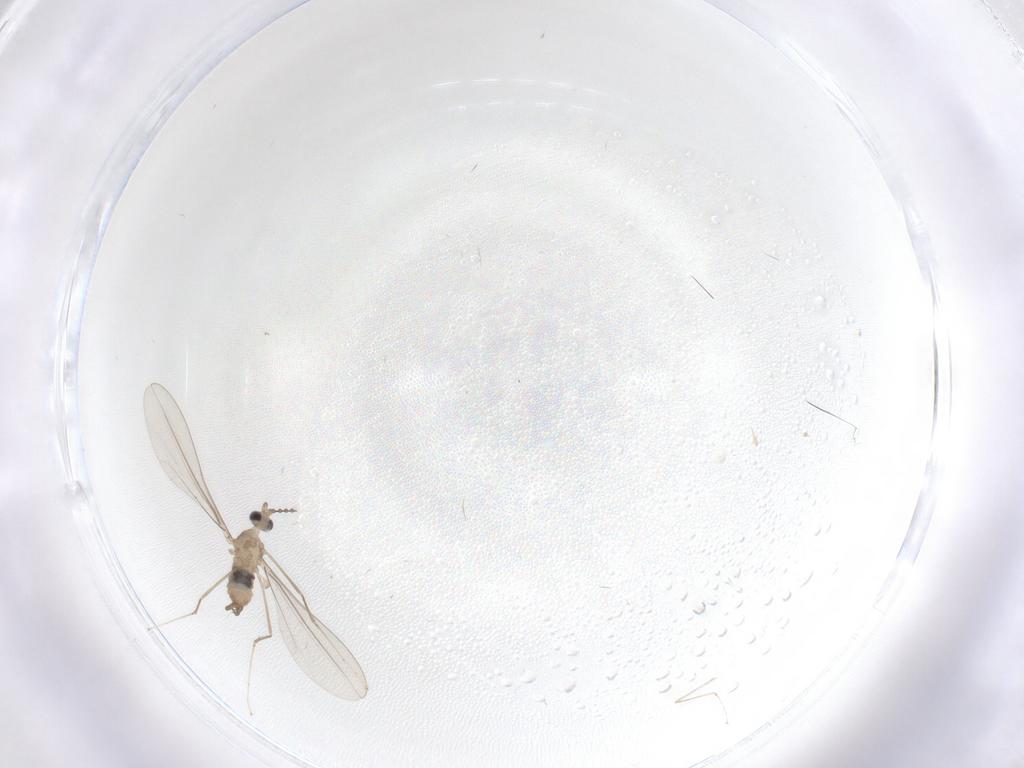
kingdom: Animalia
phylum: Arthropoda
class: Insecta
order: Diptera
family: Cecidomyiidae
